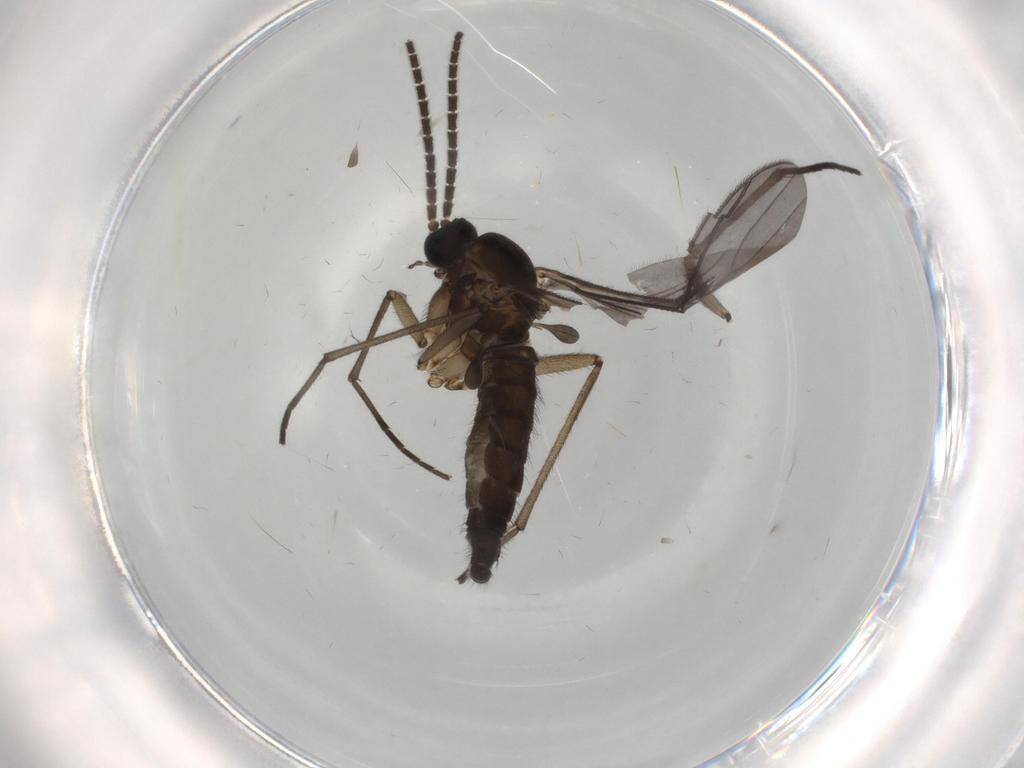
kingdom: Animalia
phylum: Arthropoda
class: Insecta
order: Diptera
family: Sciaridae
